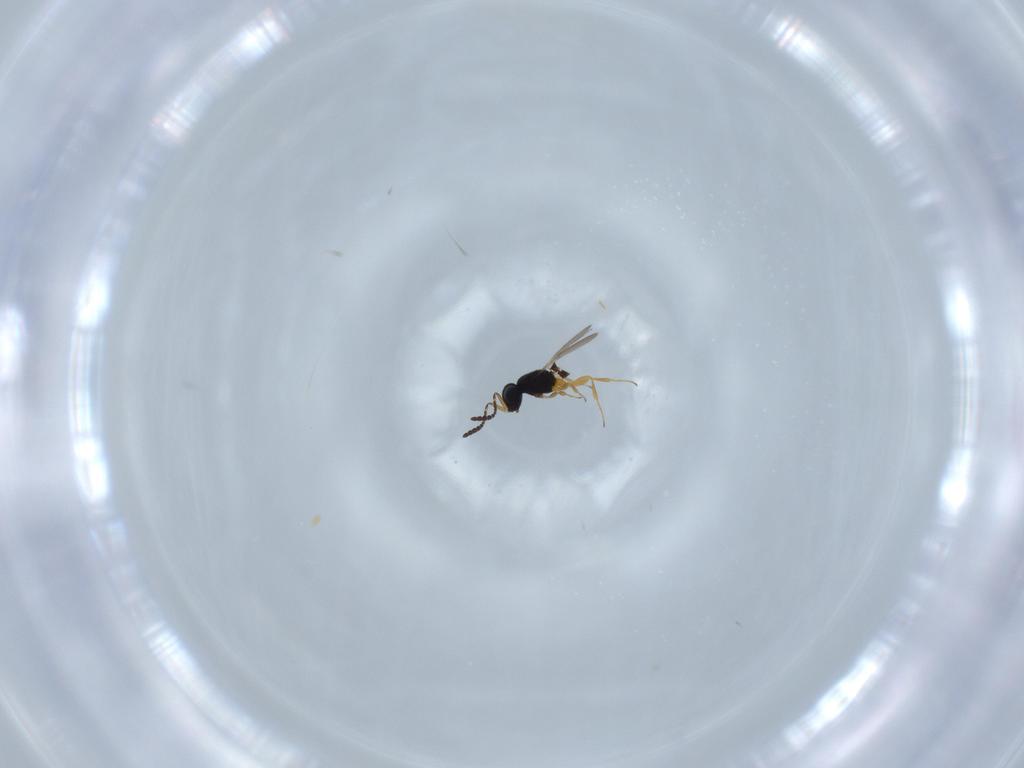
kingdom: Animalia
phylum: Arthropoda
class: Insecta
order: Hymenoptera
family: Scelionidae
